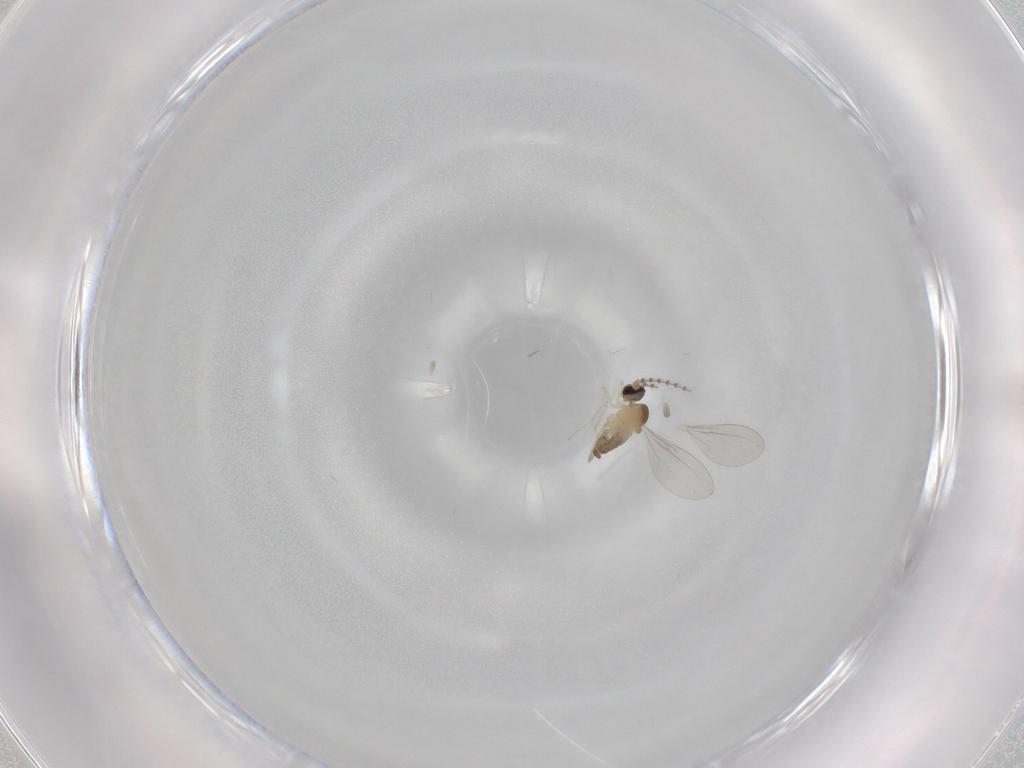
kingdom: Animalia
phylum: Arthropoda
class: Insecta
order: Diptera
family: Cecidomyiidae
